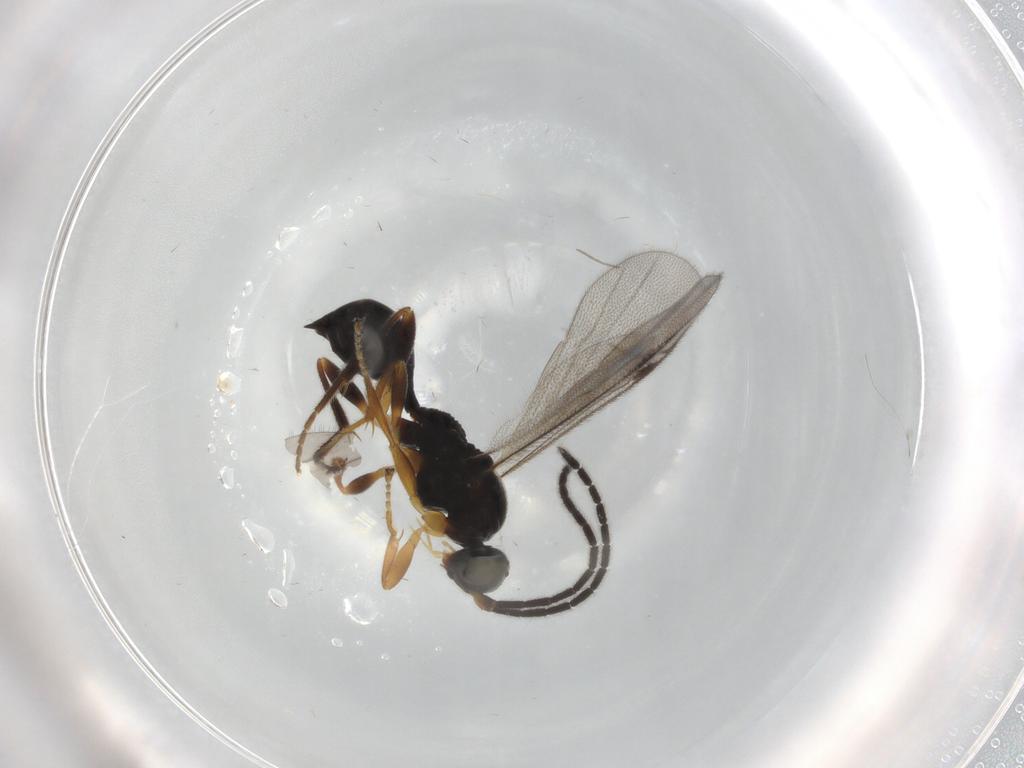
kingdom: Animalia
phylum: Arthropoda
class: Insecta
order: Hymenoptera
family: Proctotrupidae
